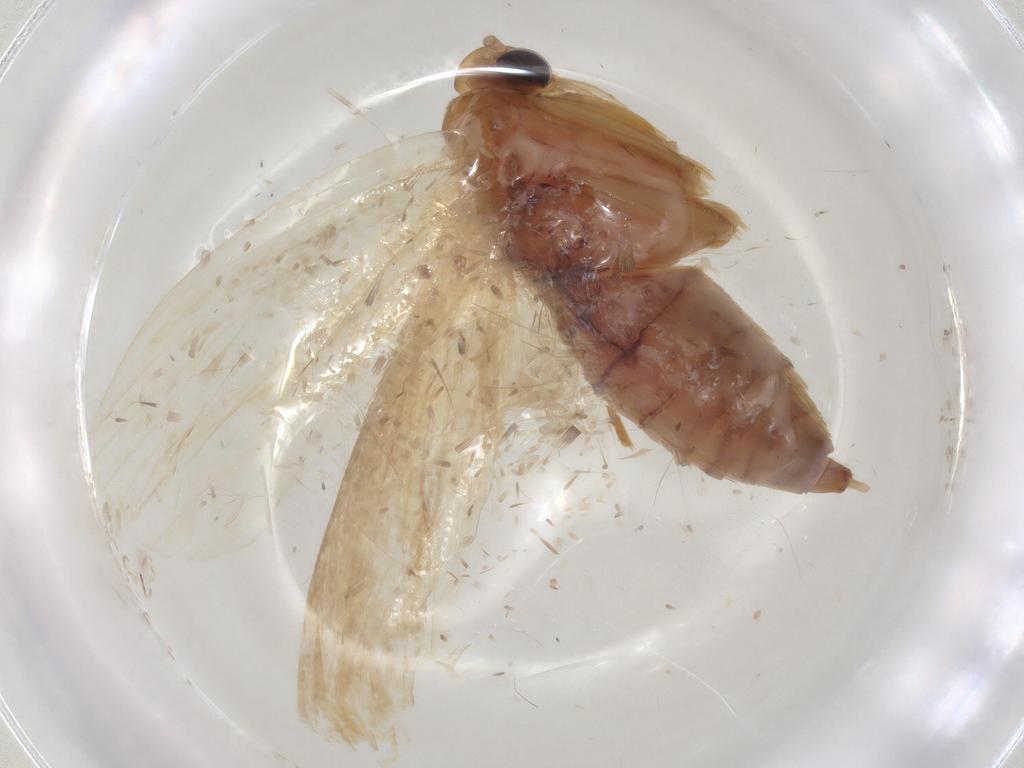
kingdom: Animalia
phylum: Arthropoda
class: Insecta
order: Lepidoptera
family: Depressariidae
